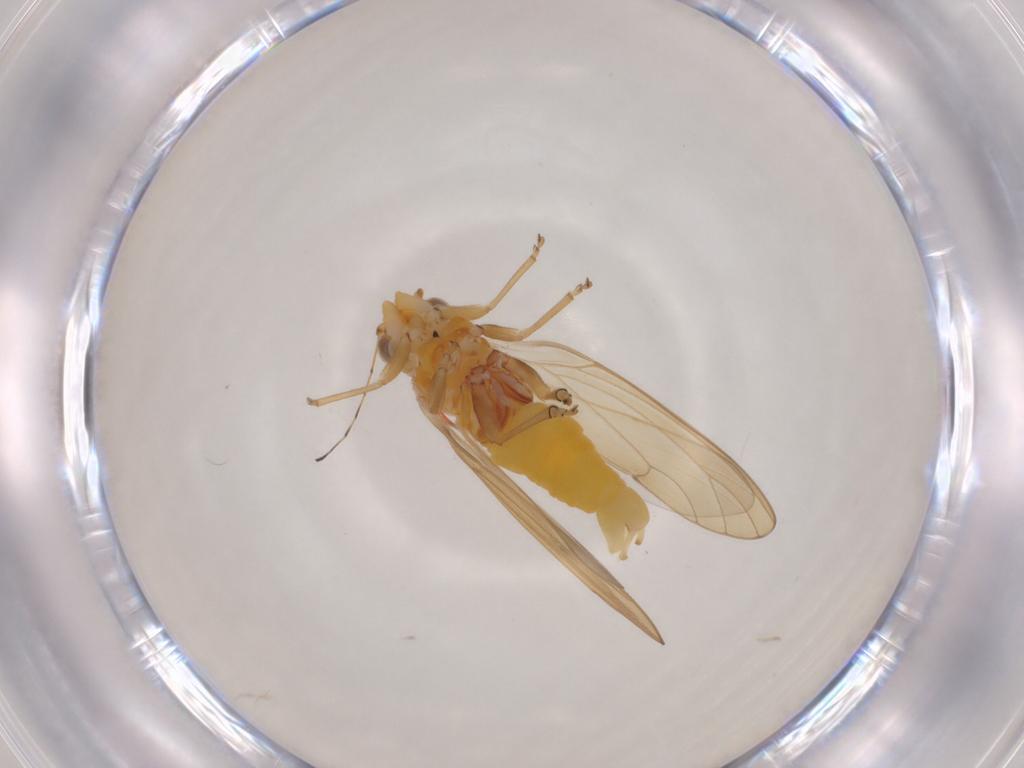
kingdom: Animalia
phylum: Arthropoda
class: Insecta
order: Hemiptera
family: Psylloidea_incertae_sedis
